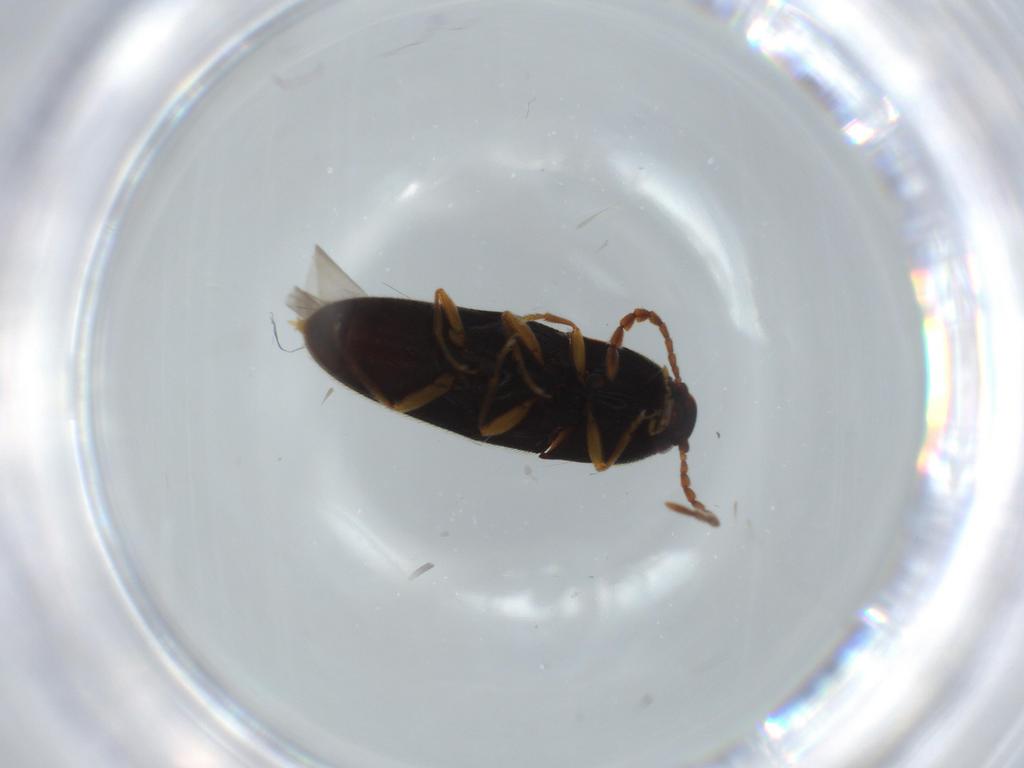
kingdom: Animalia
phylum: Arthropoda
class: Insecta
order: Coleoptera
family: Elateridae
